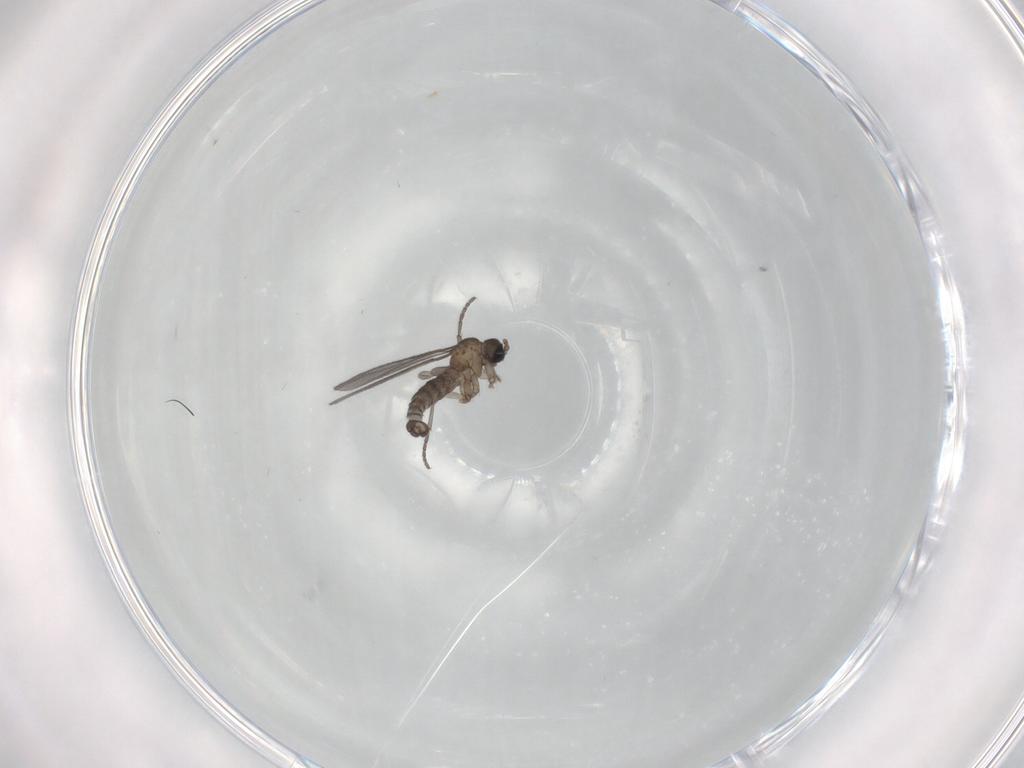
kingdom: Animalia
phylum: Arthropoda
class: Insecta
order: Diptera
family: Sciaridae
